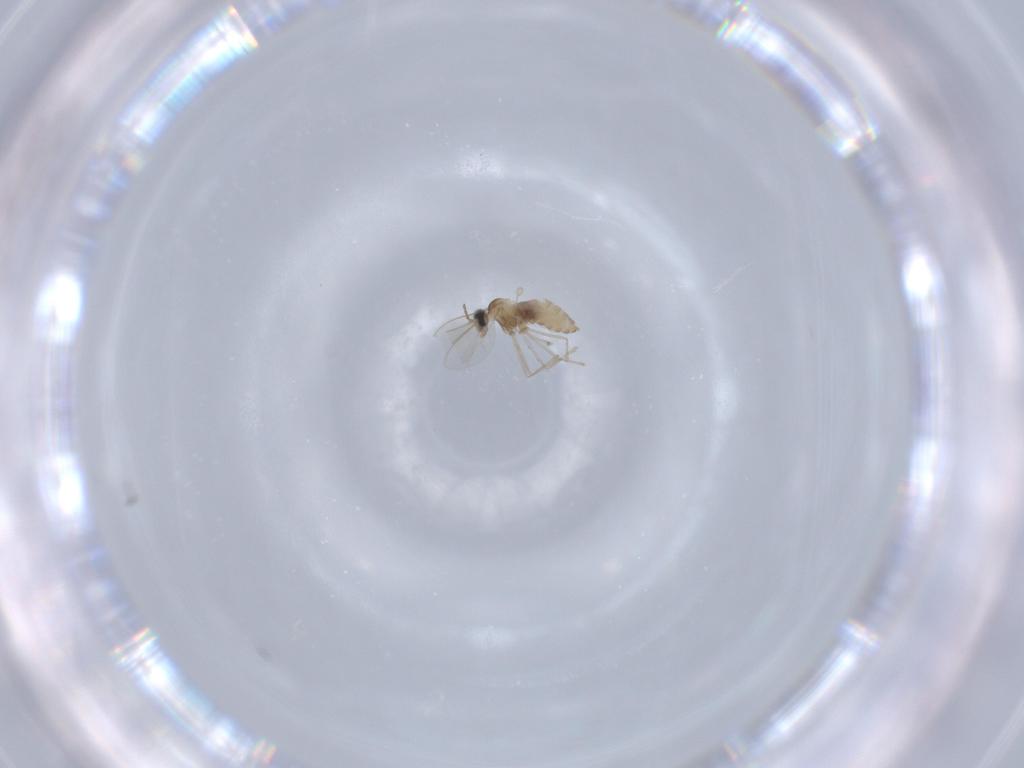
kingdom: Animalia
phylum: Arthropoda
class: Insecta
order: Diptera
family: Cecidomyiidae
